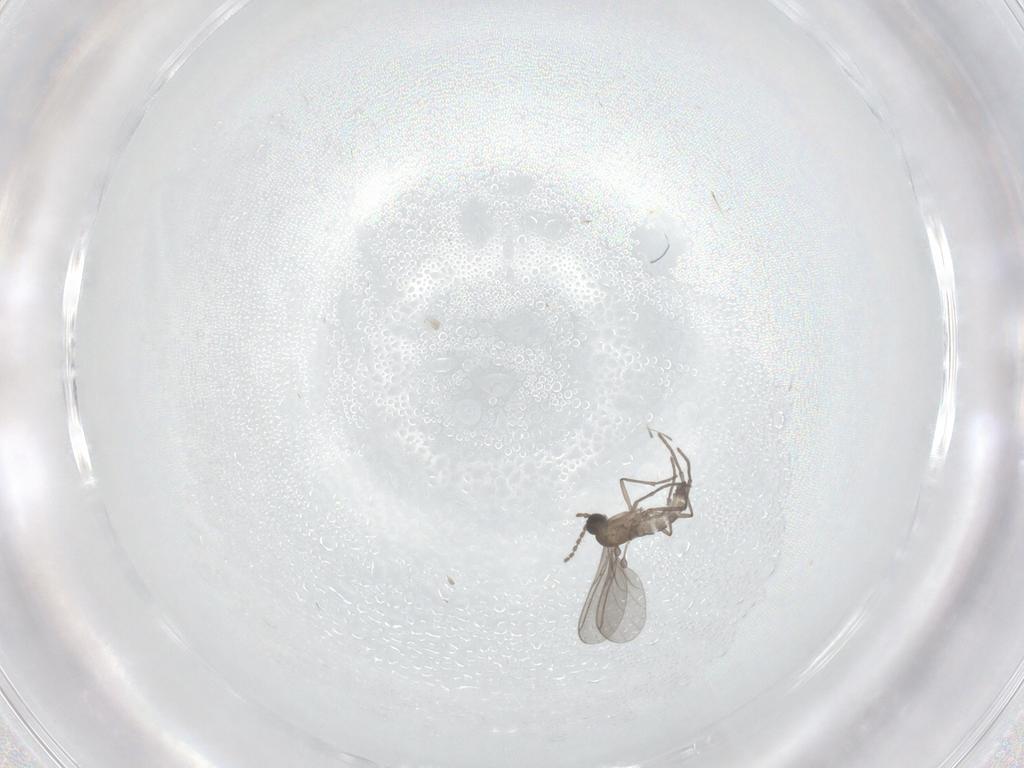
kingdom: Animalia
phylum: Arthropoda
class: Insecta
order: Diptera
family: Sciaridae
